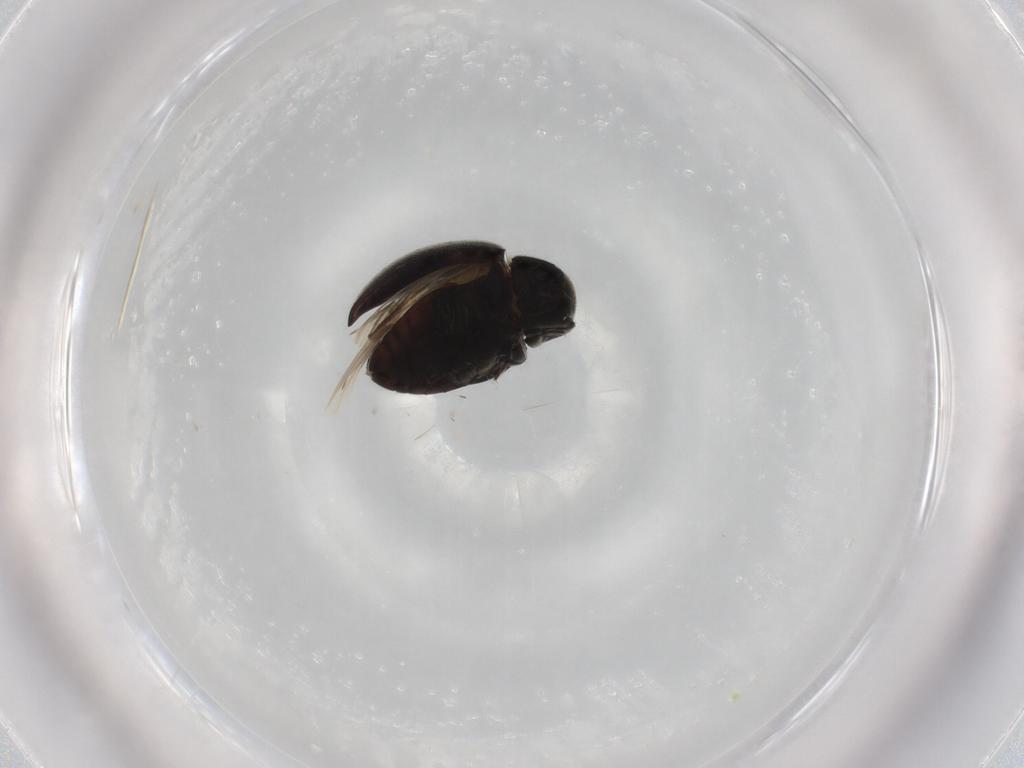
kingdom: Animalia
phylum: Arthropoda
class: Insecta
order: Coleoptera
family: Limnichidae
